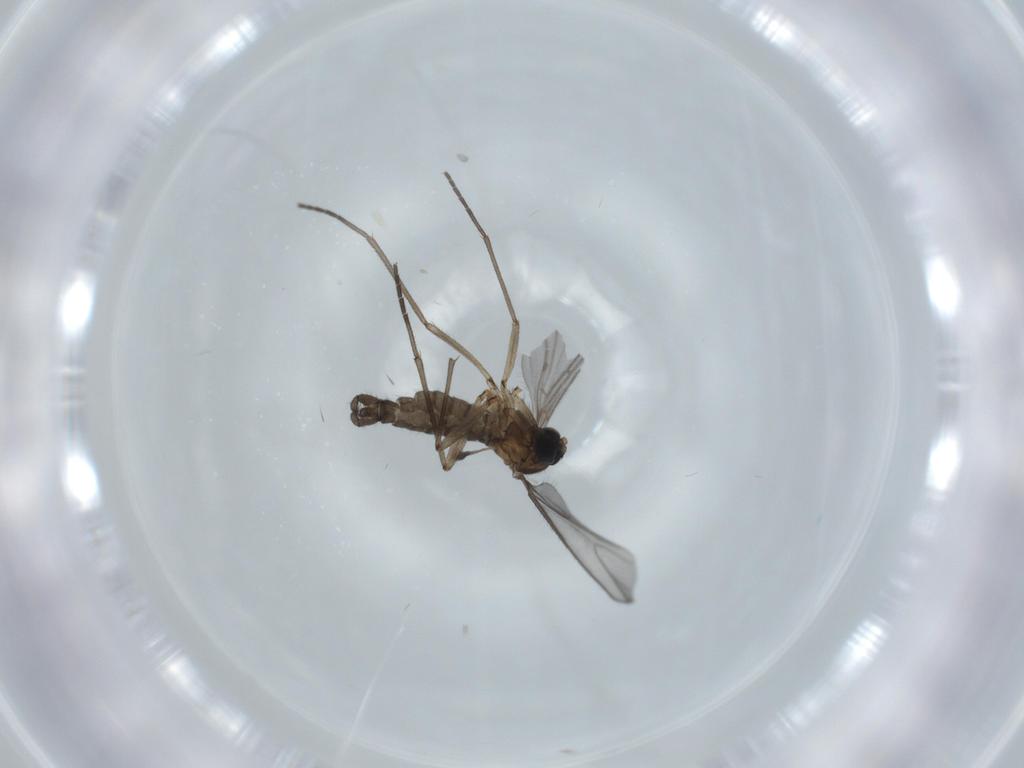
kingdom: Animalia
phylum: Arthropoda
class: Insecta
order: Diptera
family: Sciaridae
